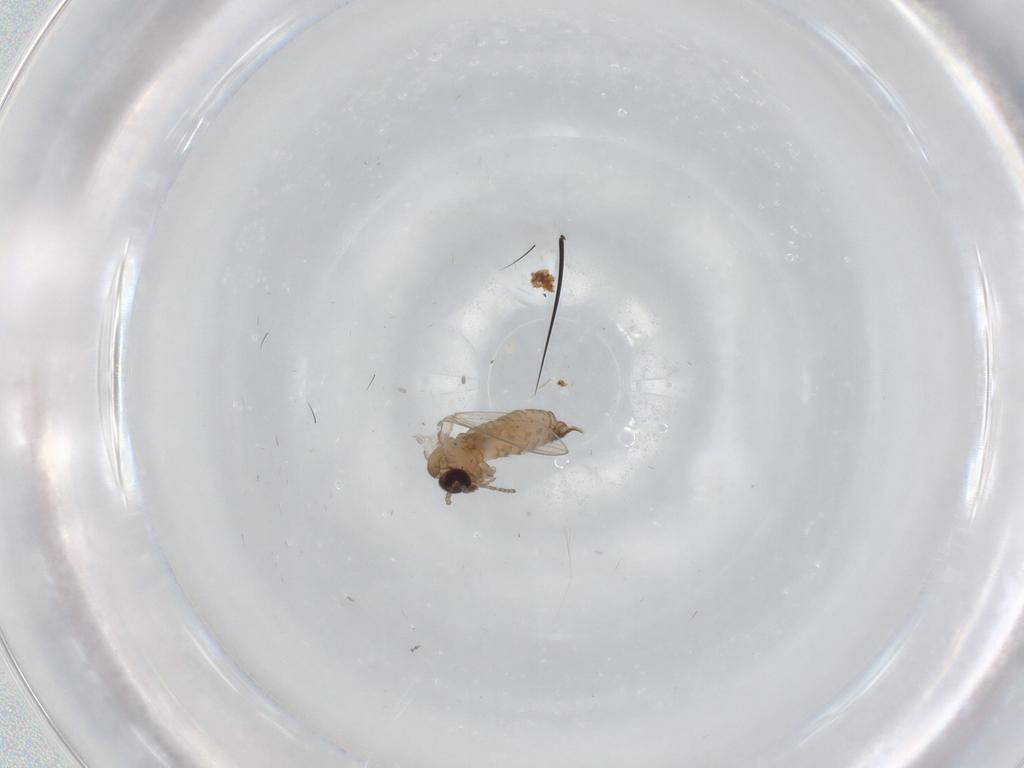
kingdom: Animalia
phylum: Arthropoda
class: Insecta
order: Diptera
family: Psychodidae
